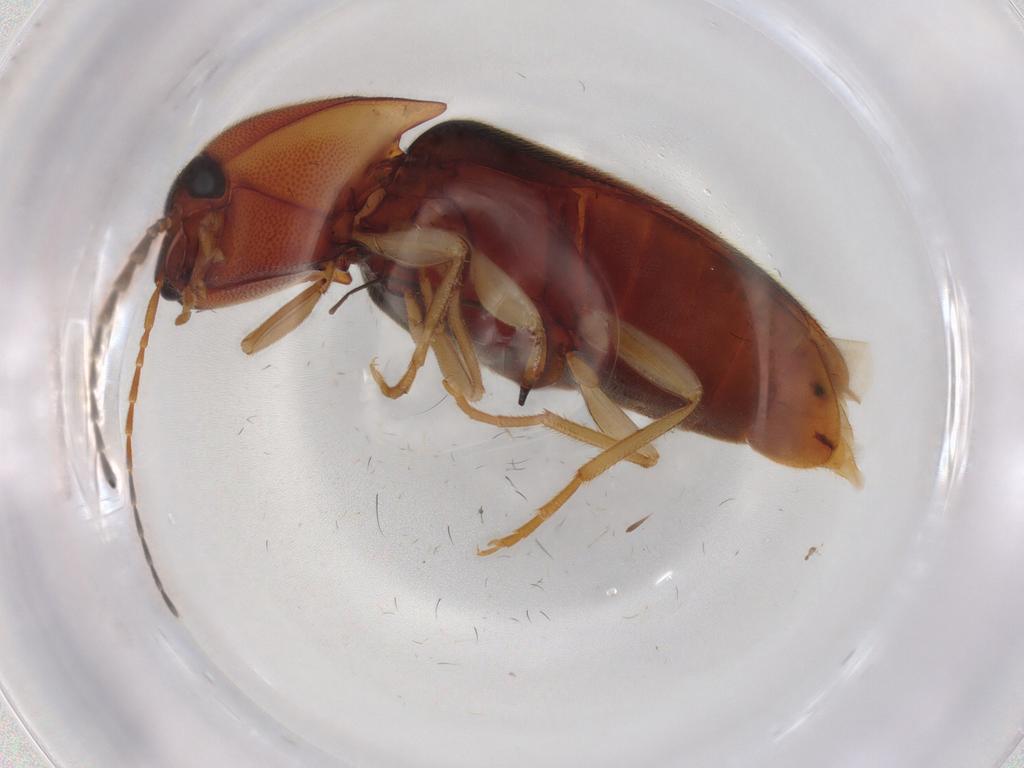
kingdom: Animalia
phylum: Arthropoda
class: Insecta
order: Coleoptera
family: Elateridae
